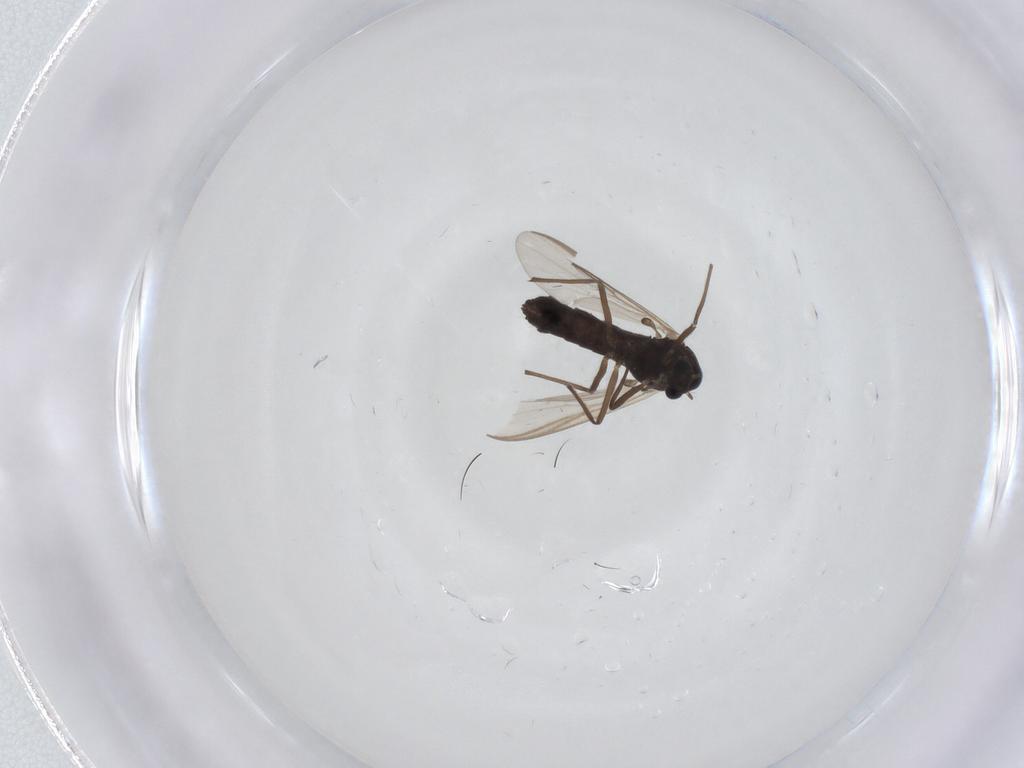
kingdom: Animalia
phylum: Arthropoda
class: Insecta
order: Diptera
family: Chironomidae
